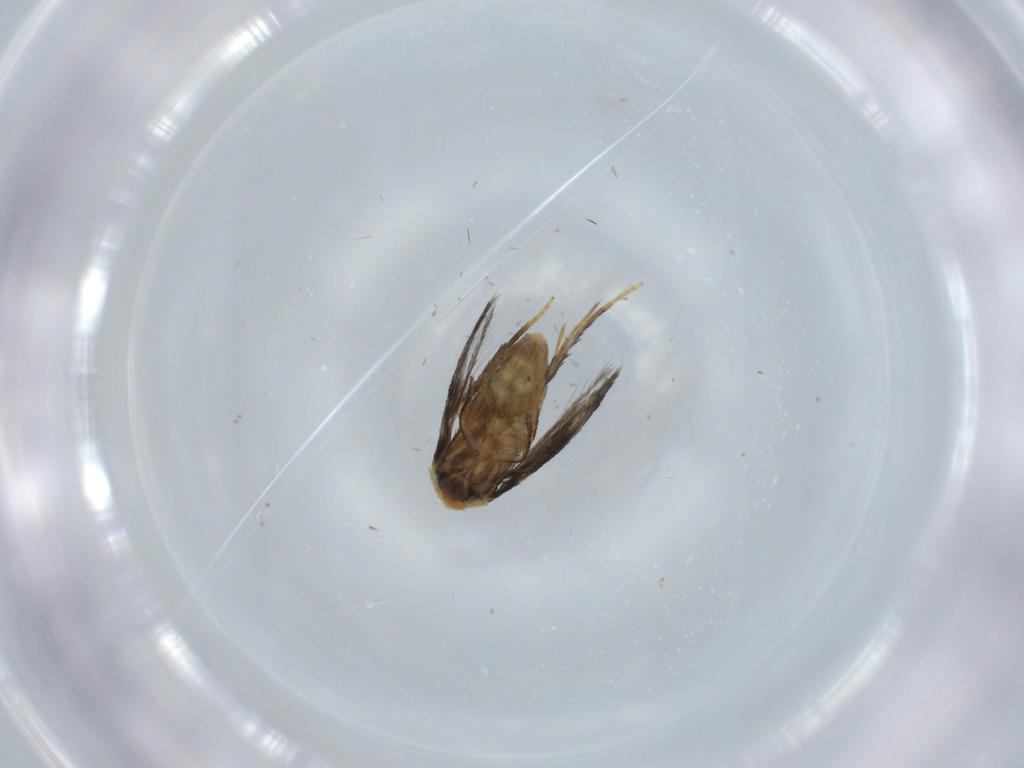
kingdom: Animalia
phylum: Arthropoda
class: Insecta
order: Lepidoptera
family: Nepticulidae
